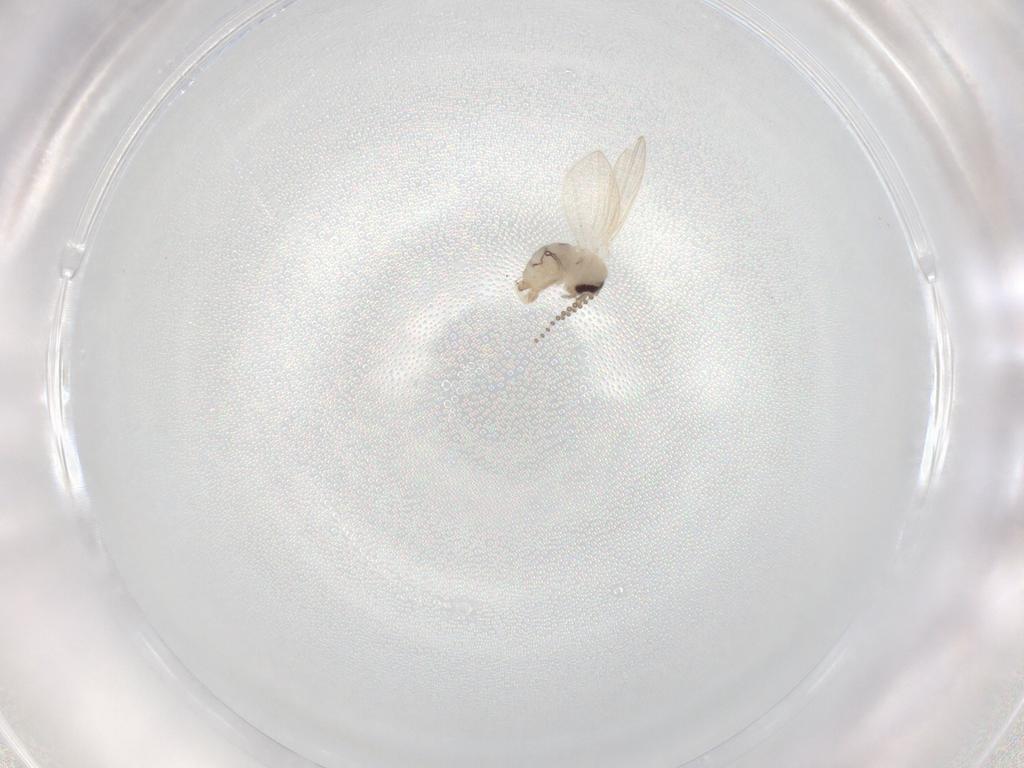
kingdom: Animalia
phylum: Arthropoda
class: Insecta
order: Diptera
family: Psychodidae
